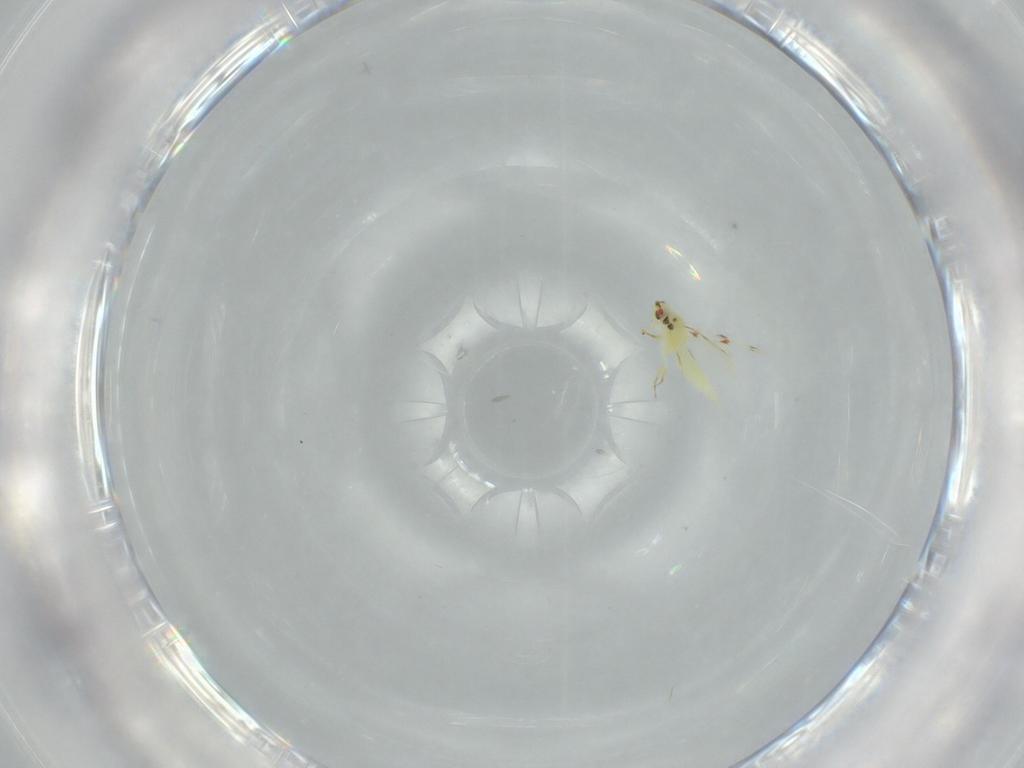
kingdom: Animalia
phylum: Arthropoda
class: Insecta
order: Hemiptera
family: Aleyrodidae
